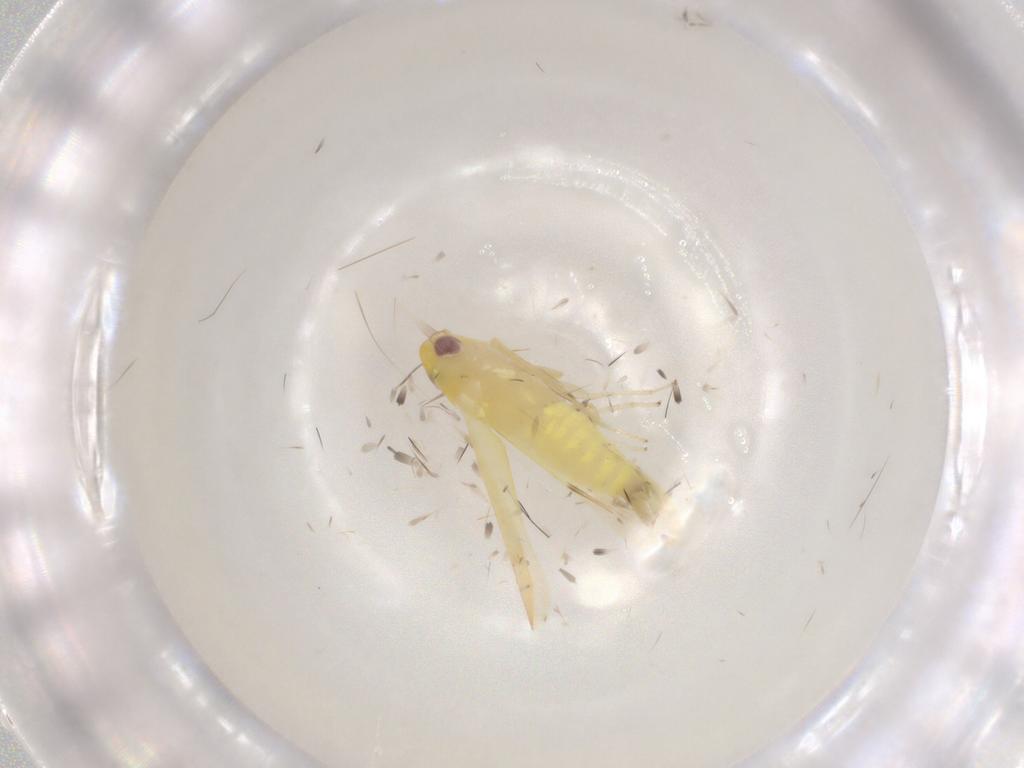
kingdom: Animalia
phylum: Arthropoda
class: Insecta
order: Hemiptera
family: Cicadellidae
